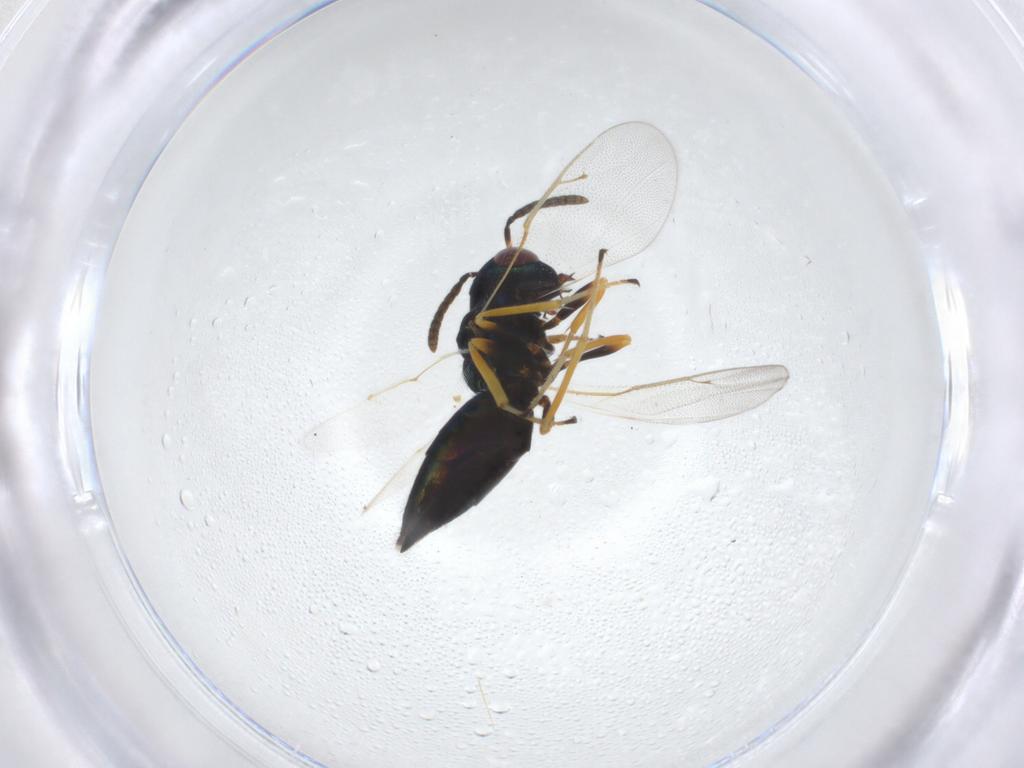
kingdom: Animalia
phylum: Arthropoda
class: Insecta
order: Hymenoptera
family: Pteromalidae
